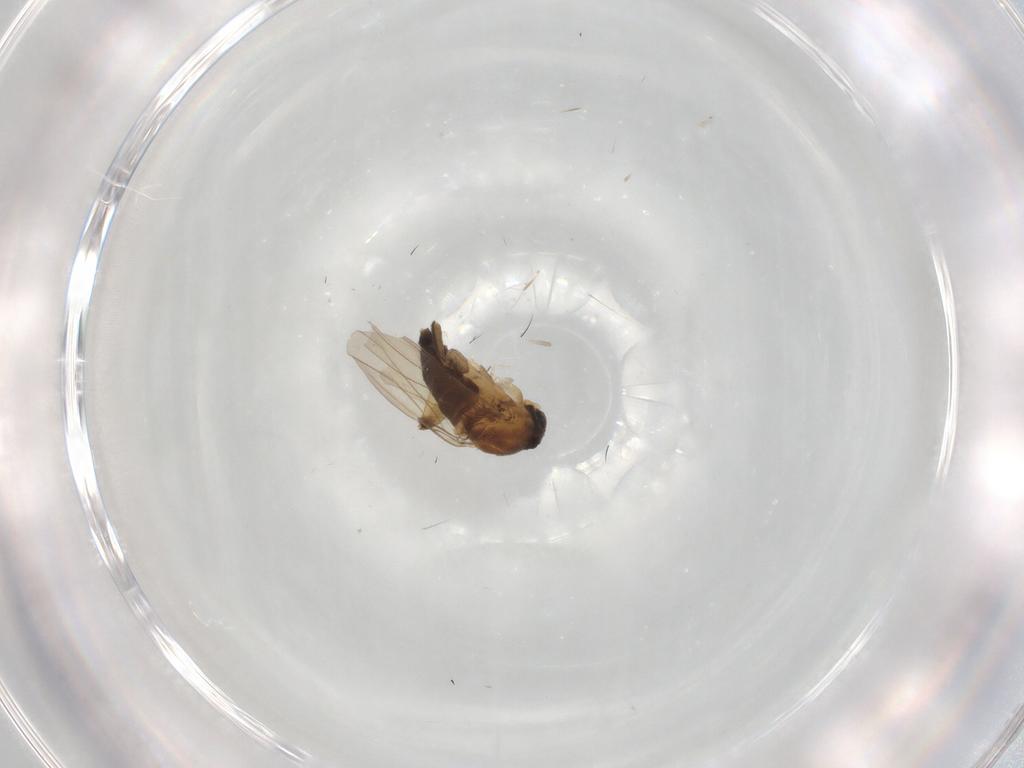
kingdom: Animalia
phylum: Arthropoda
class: Insecta
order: Diptera
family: Phoridae
